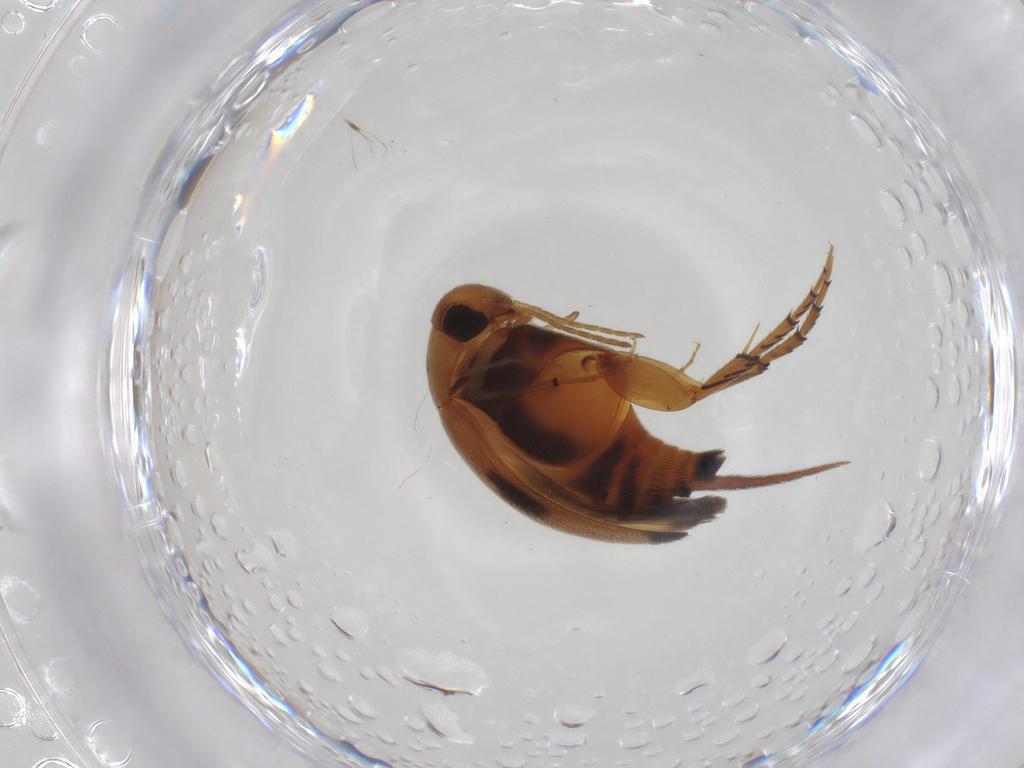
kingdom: Animalia
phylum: Arthropoda
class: Insecta
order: Coleoptera
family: Mordellidae
